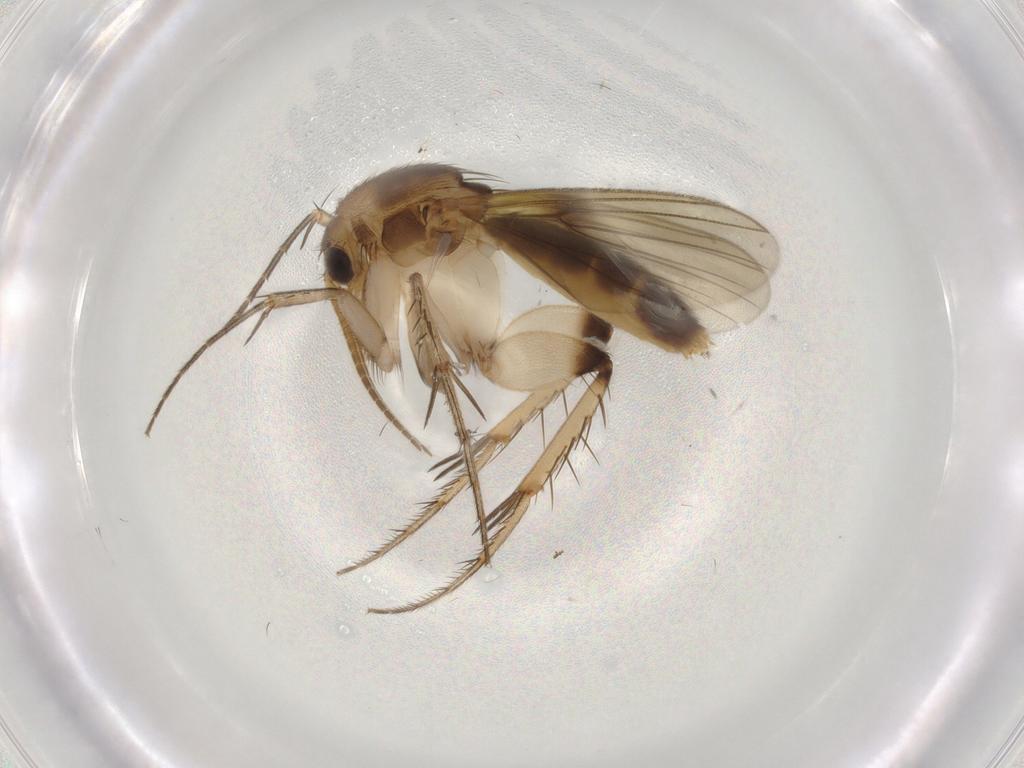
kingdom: Animalia
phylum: Arthropoda
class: Insecta
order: Diptera
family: Mycetophilidae
